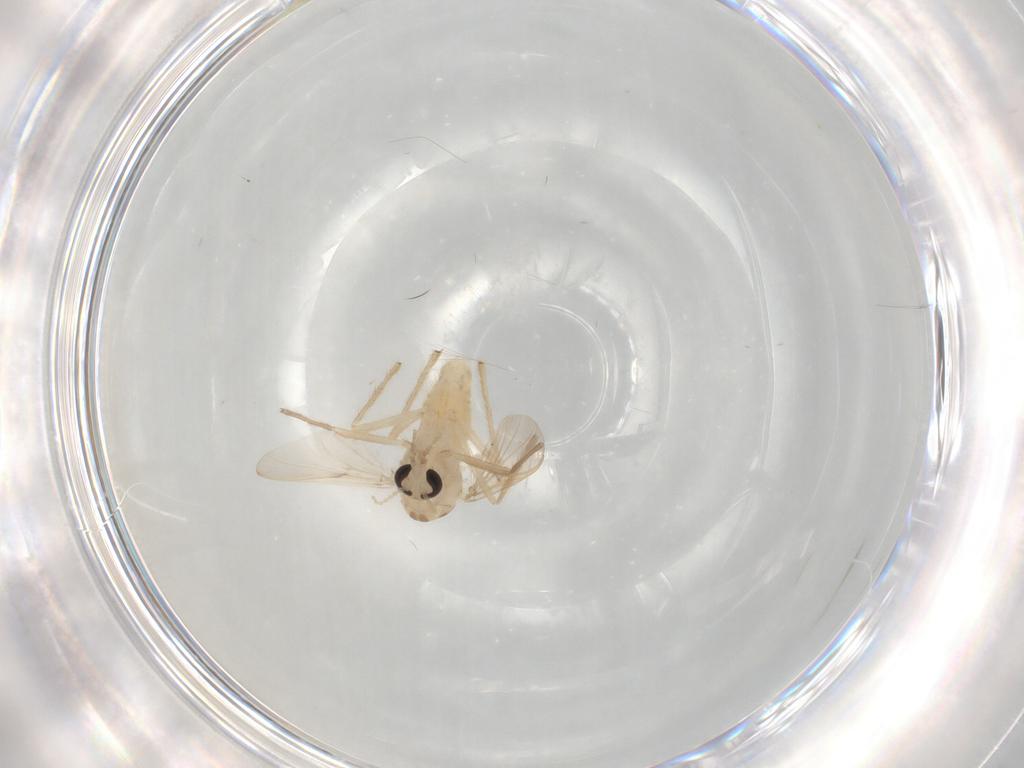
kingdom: Animalia
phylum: Arthropoda
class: Insecta
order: Diptera
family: Chironomidae
